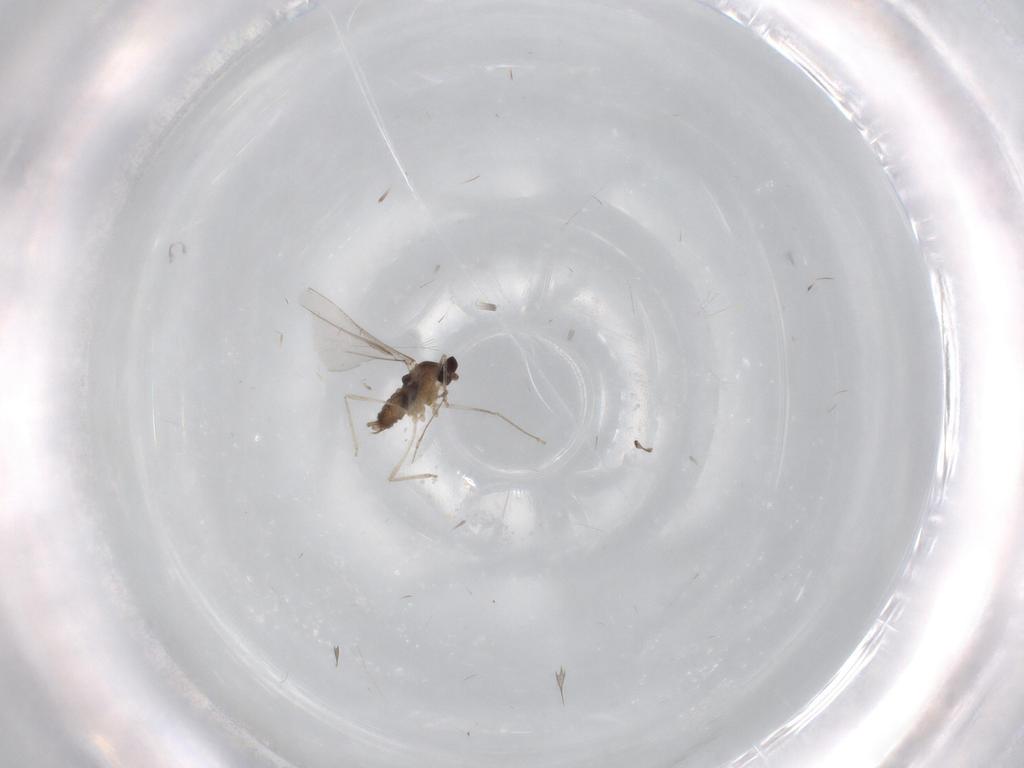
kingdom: Animalia
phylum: Arthropoda
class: Insecta
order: Diptera
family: Cecidomyiidae
